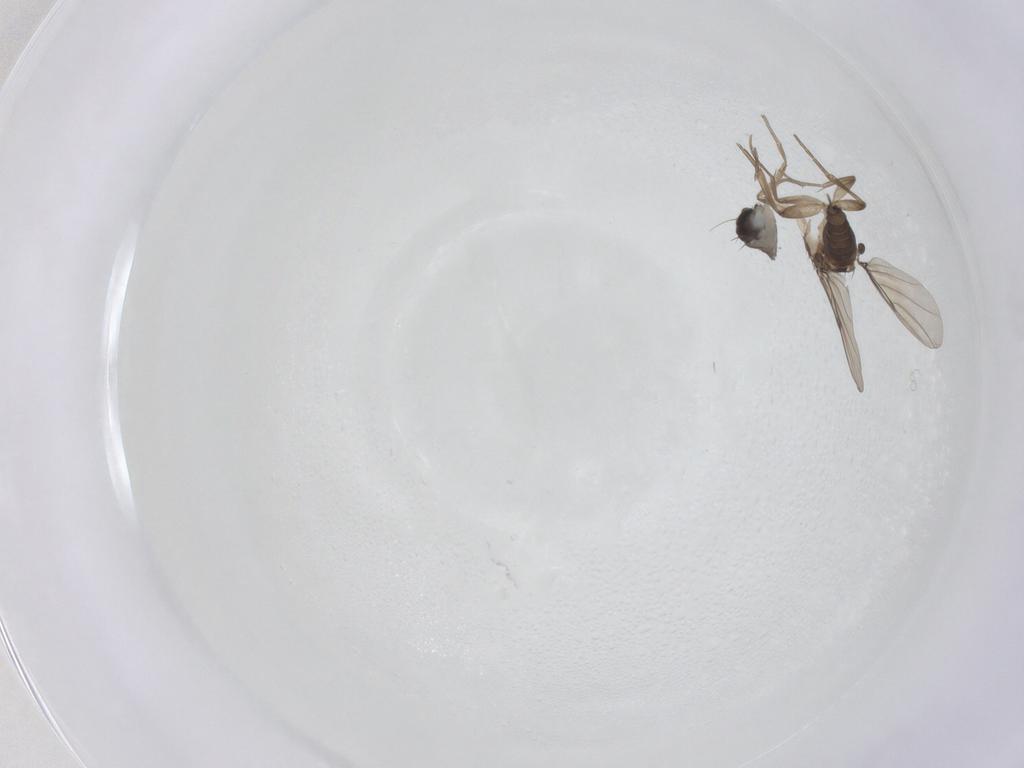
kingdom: Animalia
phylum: Arthropoda
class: Insecta
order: Diptera
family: Phoridae
